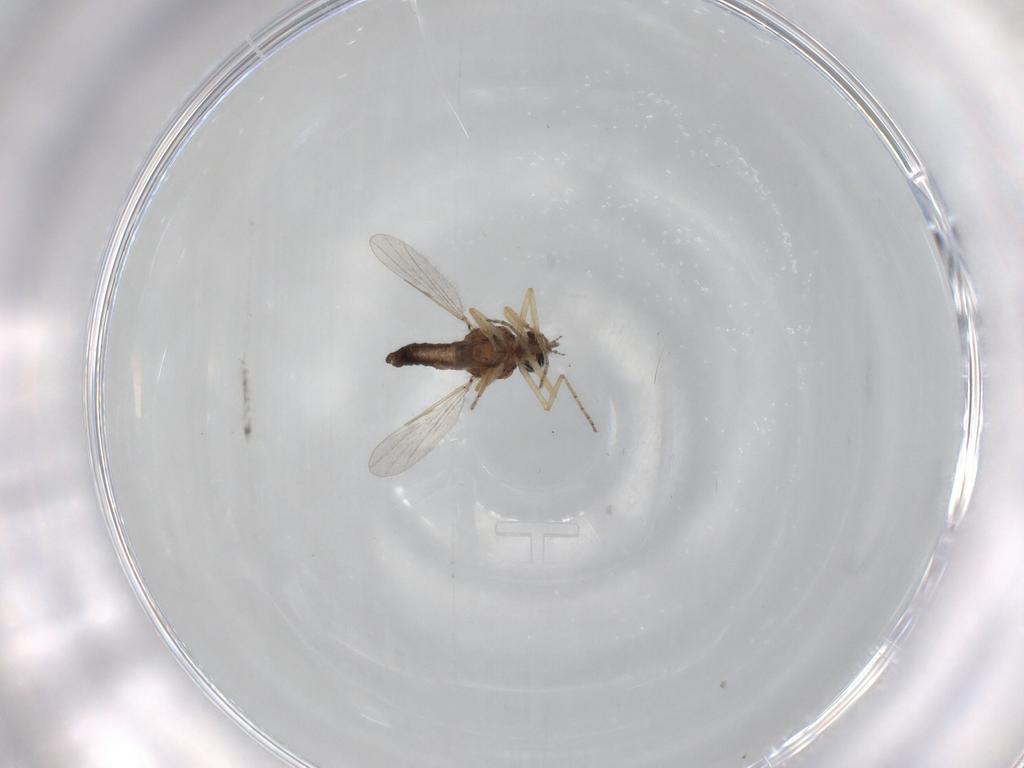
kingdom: Animalia
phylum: Arthropoda
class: Insecta
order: Diptera
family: Ceratopogonidae
